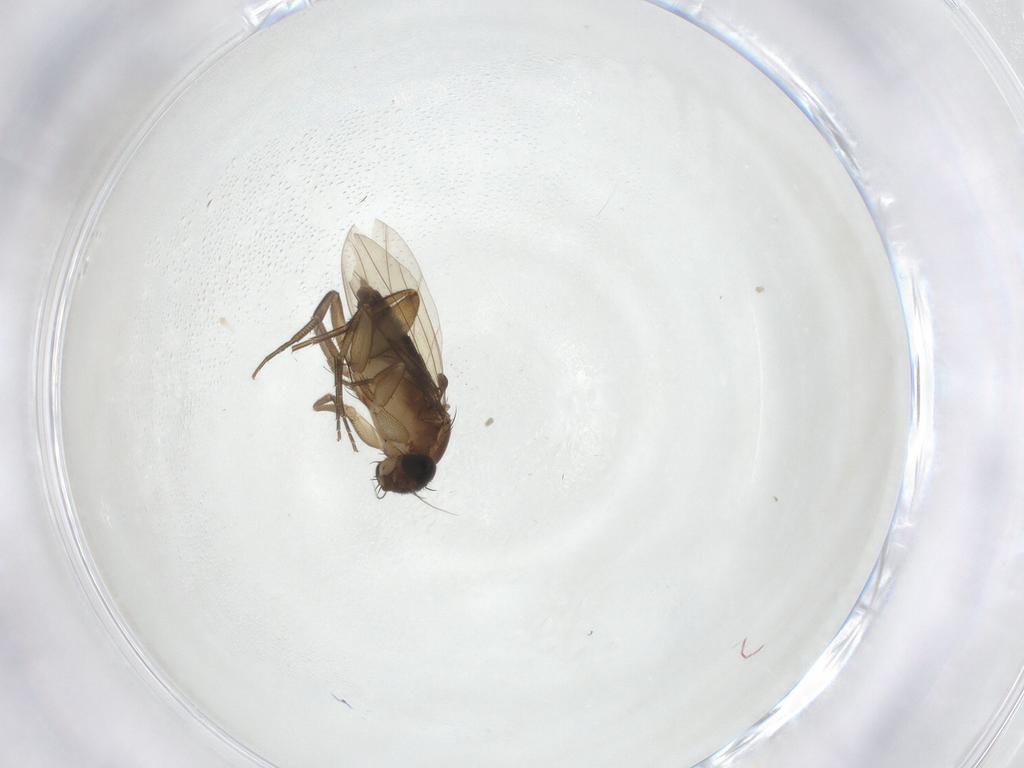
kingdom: Animalia
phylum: Arthropoda
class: Insecta
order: Diptera
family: Phoridae
